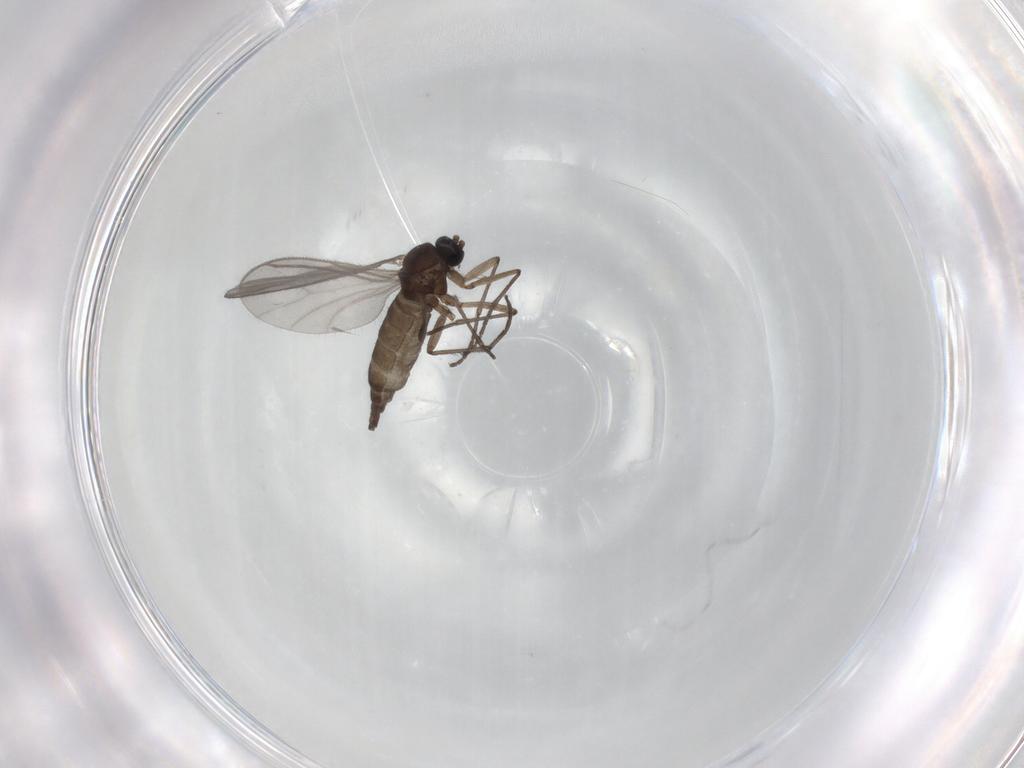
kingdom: Animalia
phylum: Arthropoda
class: Insecta
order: Diptera
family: Sciaridae
